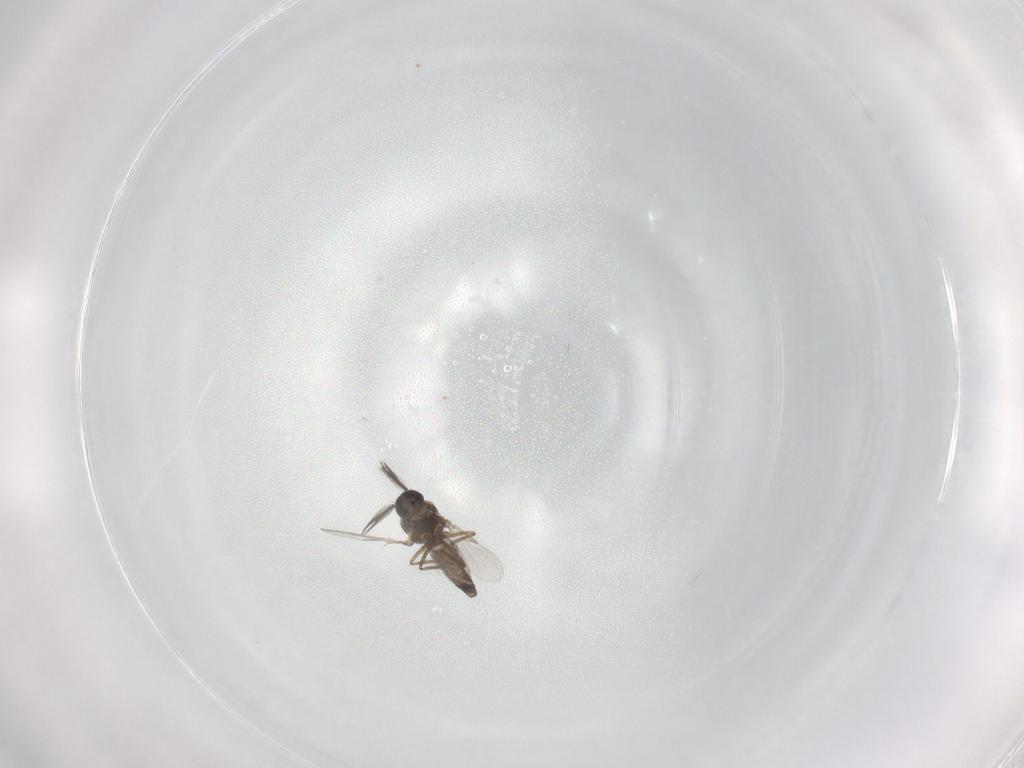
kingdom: Animalia
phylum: Arthropoda
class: Insecta
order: Diptera
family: Ceratopogonidae
